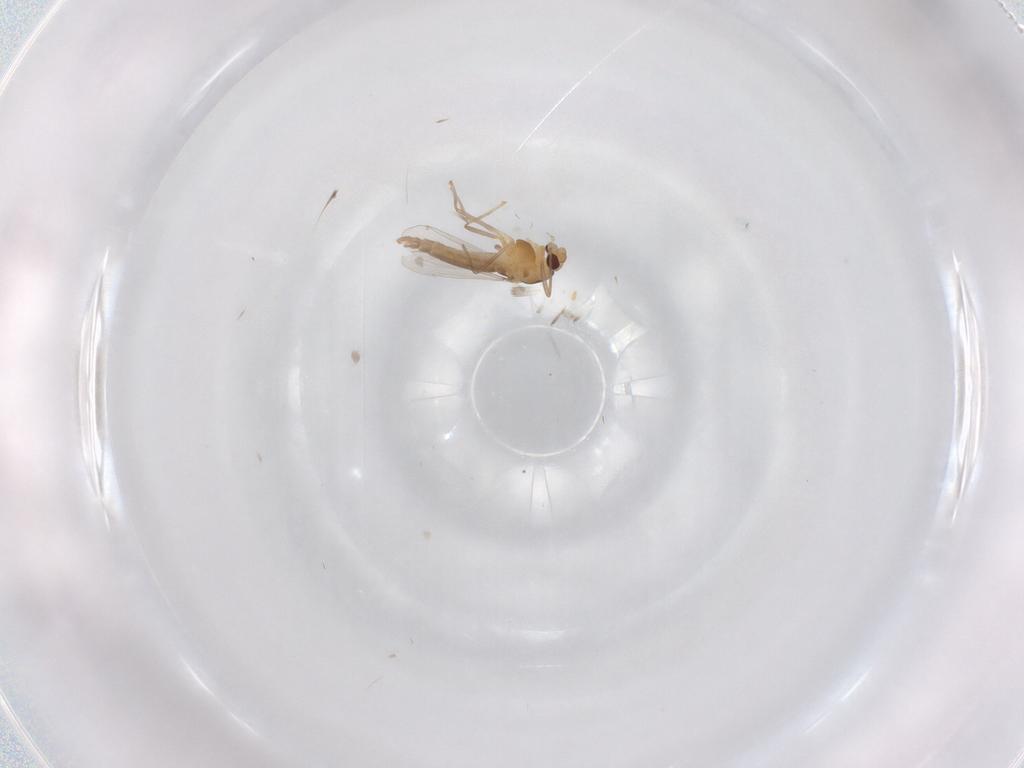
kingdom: Animalia
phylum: Arthropoda
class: Insecta
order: Diptera
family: Chironomidae
